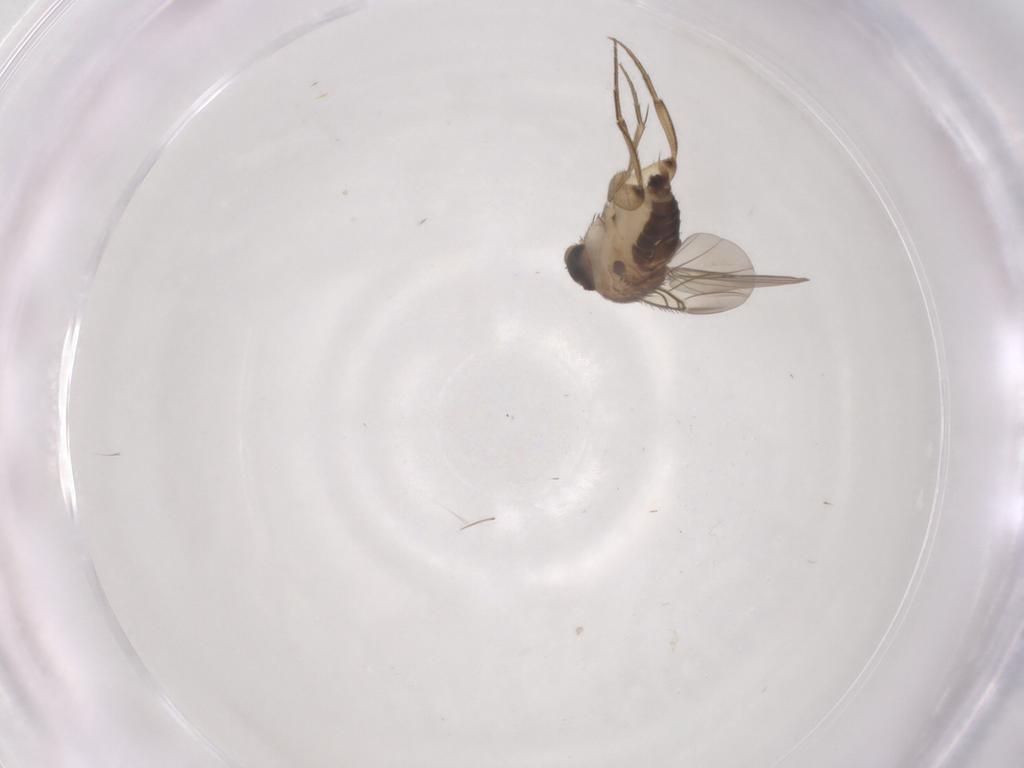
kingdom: Animalia
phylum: Arthropoda
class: Insecta
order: Diptera
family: Phoridae
